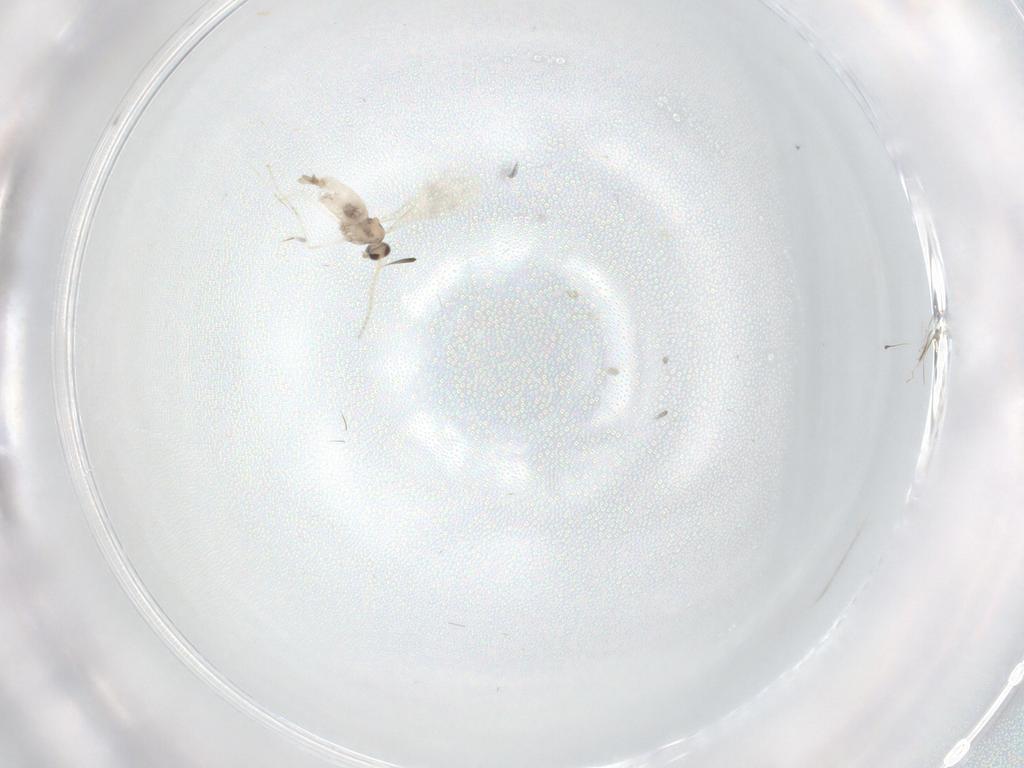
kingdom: Animalia
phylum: Arthropoda
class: Insecta
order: Diptera
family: Cecidomyiidae
